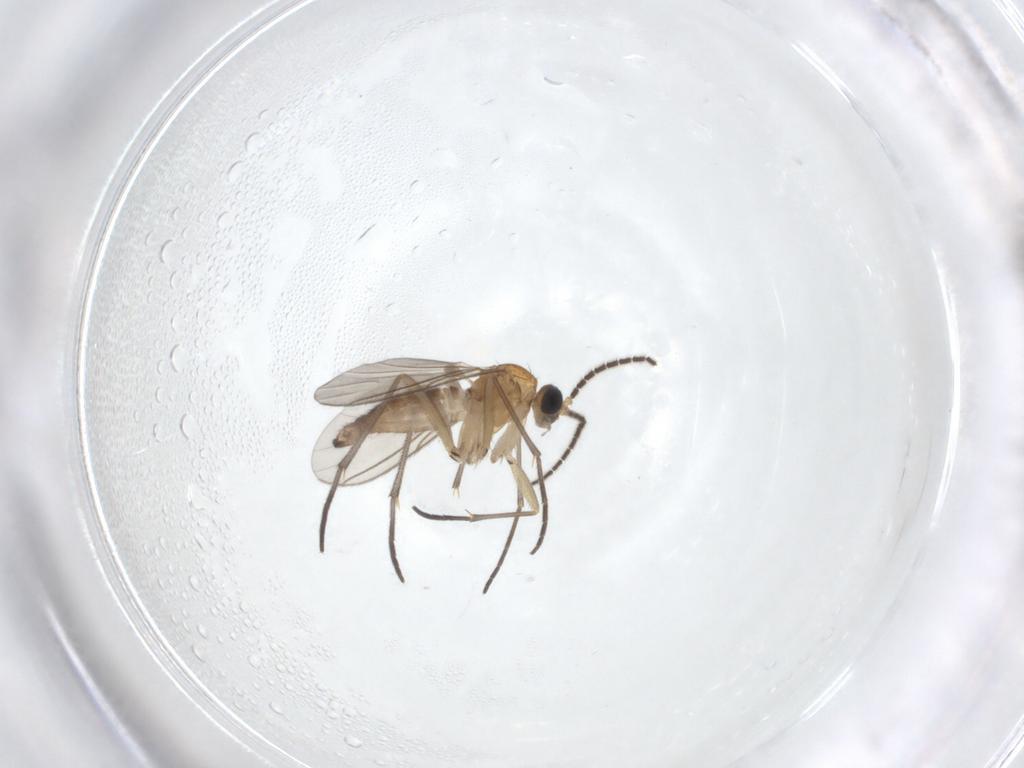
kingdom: Animalia
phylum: Arthropoda
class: Insecta
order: Diptera
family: Sciaridae
